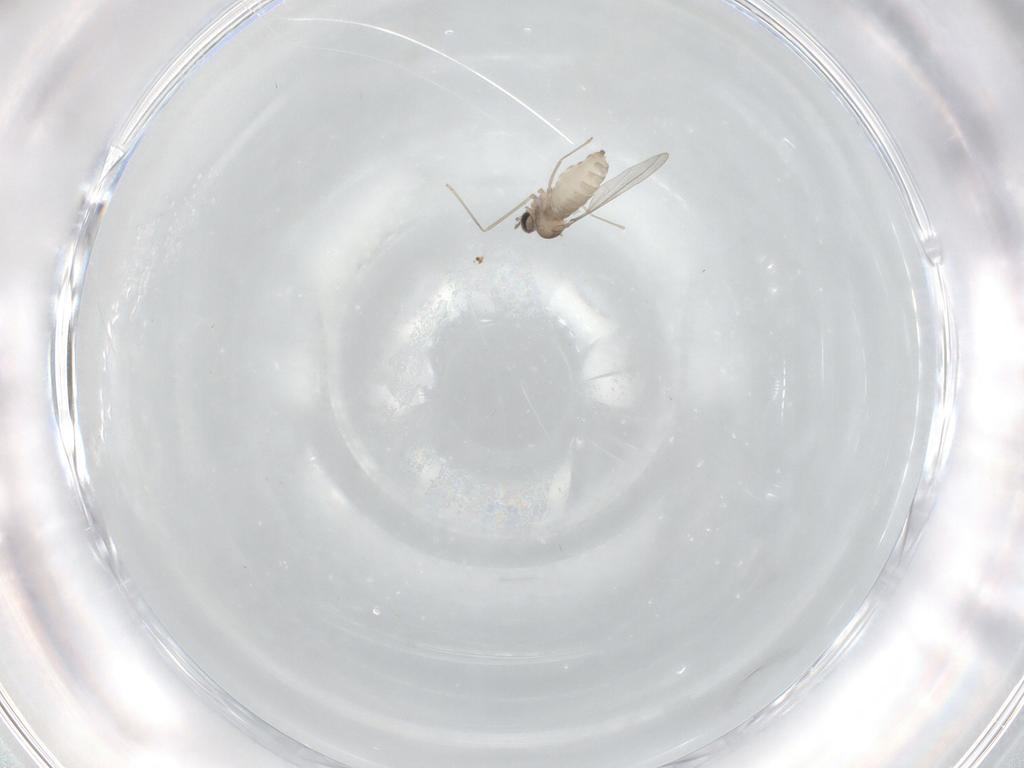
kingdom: Animalia
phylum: Arthropoda
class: Insecta
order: Diptera
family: Cecidomyiidae
